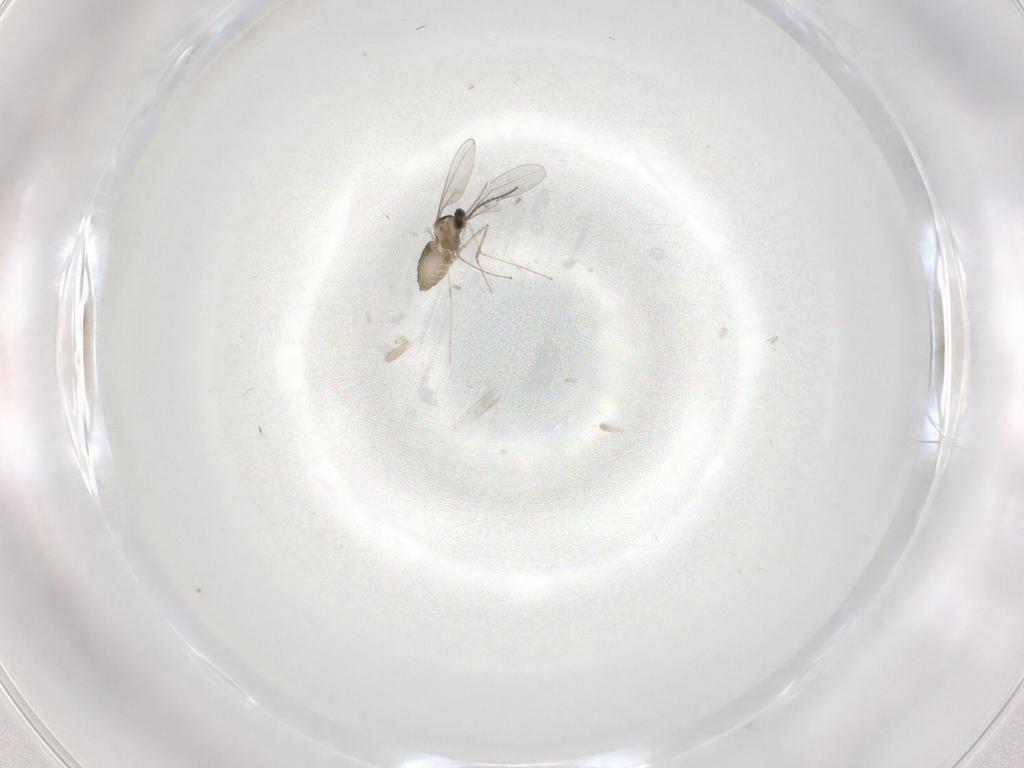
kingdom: Animalia
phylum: Arthropoda
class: Insecta
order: Diptera
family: Cecidomyiidae
